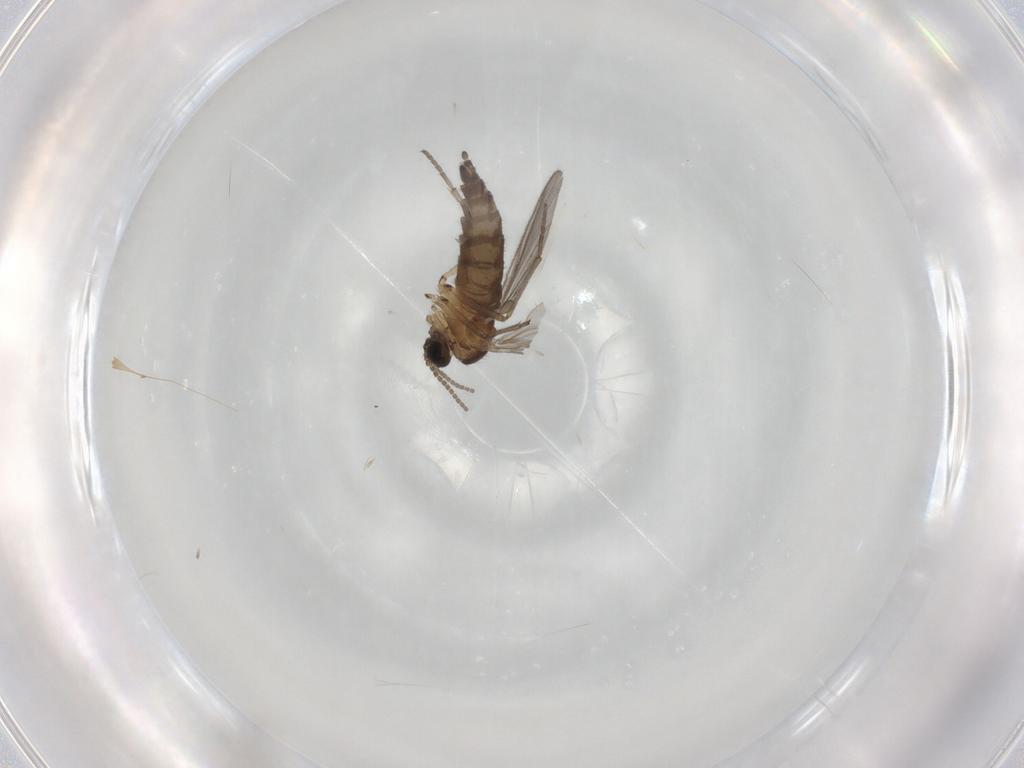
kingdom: Animalia
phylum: Arthropoda
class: Insecta
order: Diptera
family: Sciaridae
